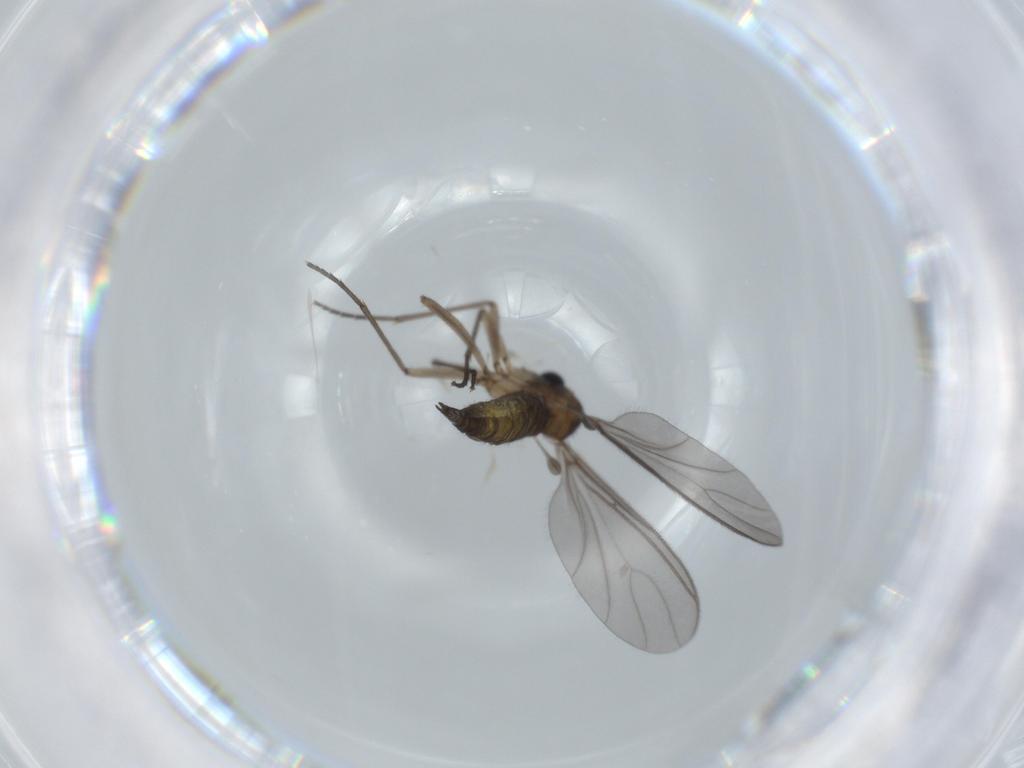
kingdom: Animalia
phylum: Arthropoda
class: Insecta
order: Diptera
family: Sciaridae
